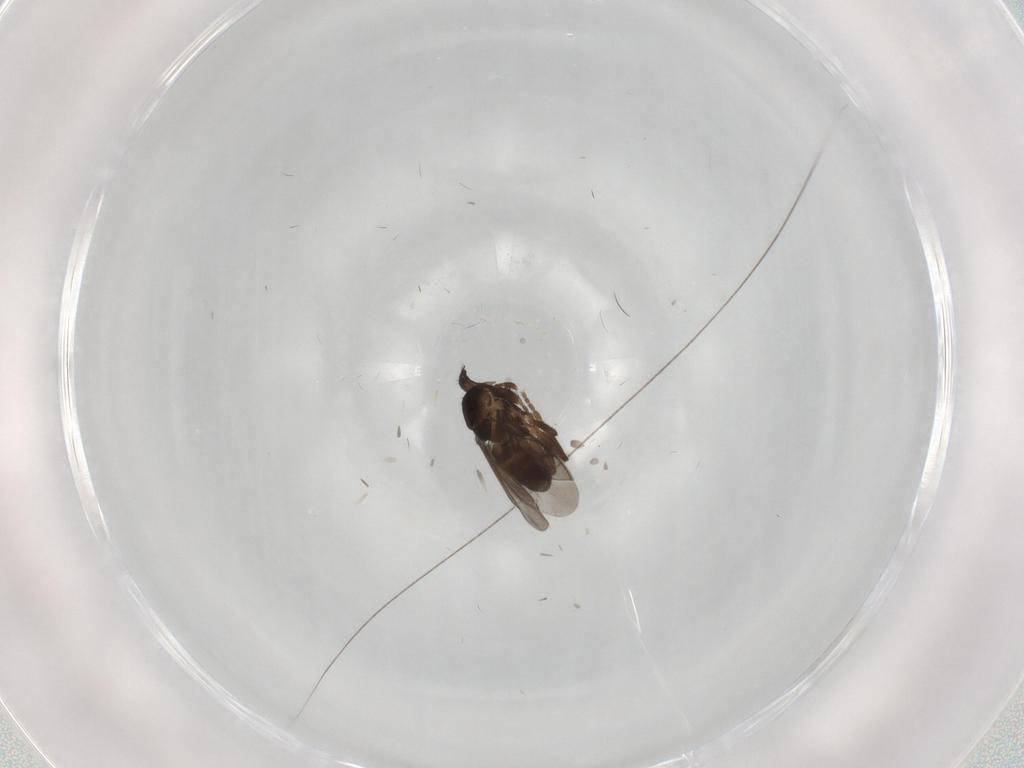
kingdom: Animalia
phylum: Arthropoda
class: Insecta
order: Diptera
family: Sphaeroceridae
